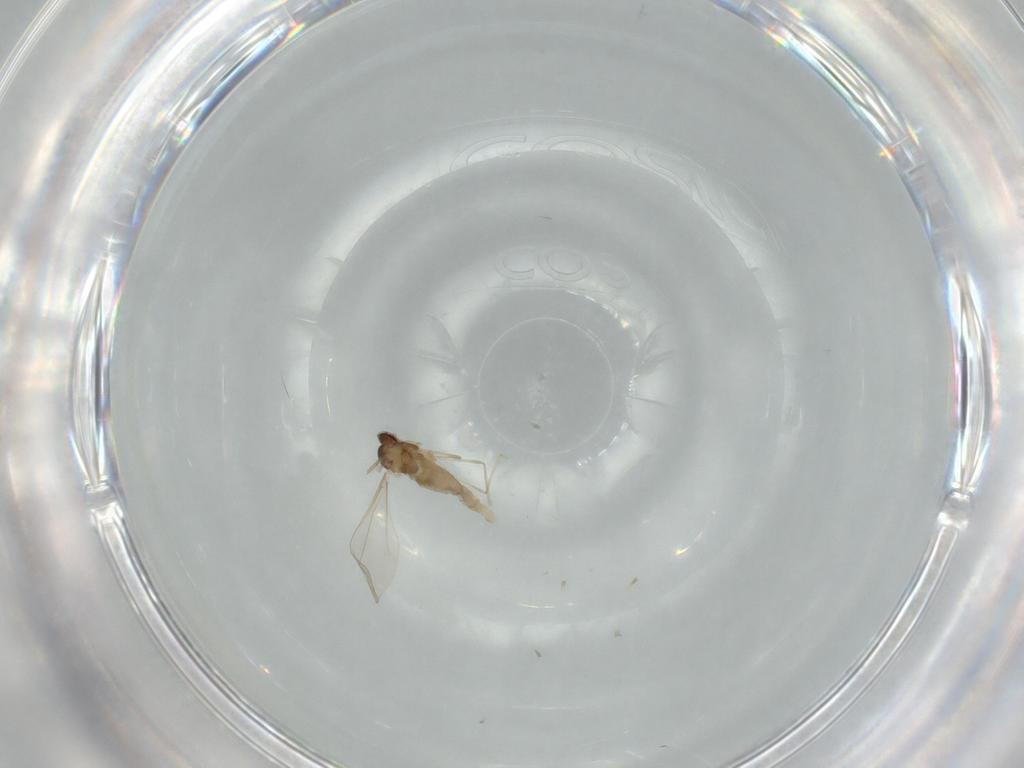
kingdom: Animalia
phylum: Arthropoda
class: Insecta
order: Diptera
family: Cecidomyiidae
